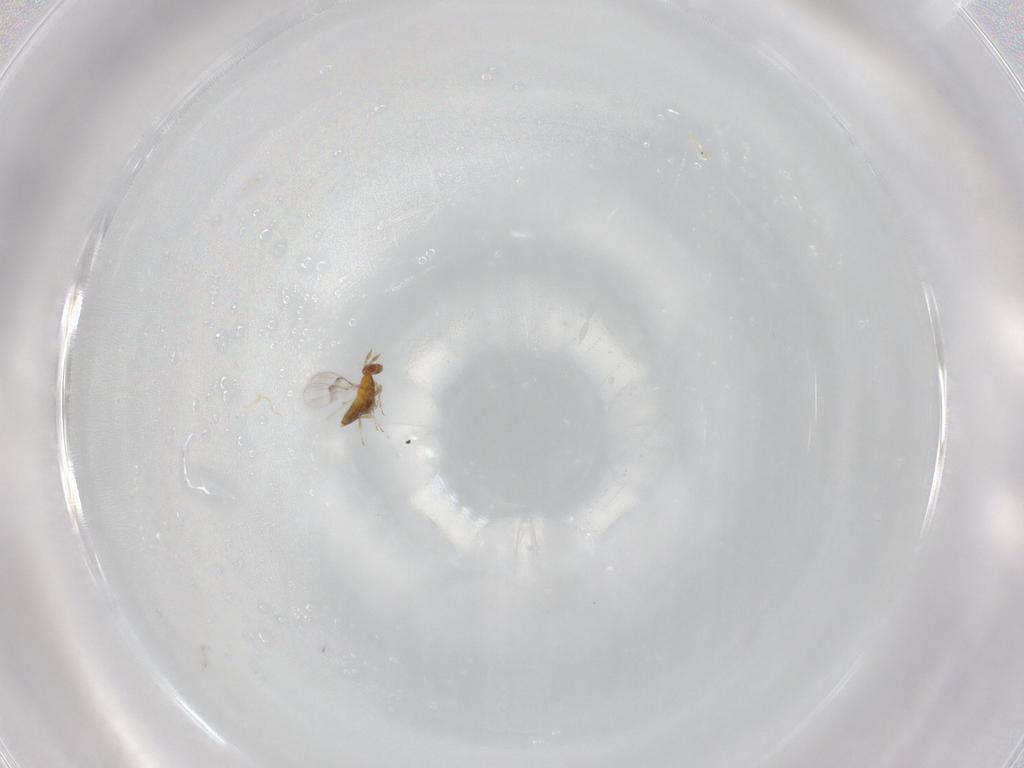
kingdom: Animalia
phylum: Arthropoda
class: Insecta
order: Hymenoptera
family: Trichogrammatidae
